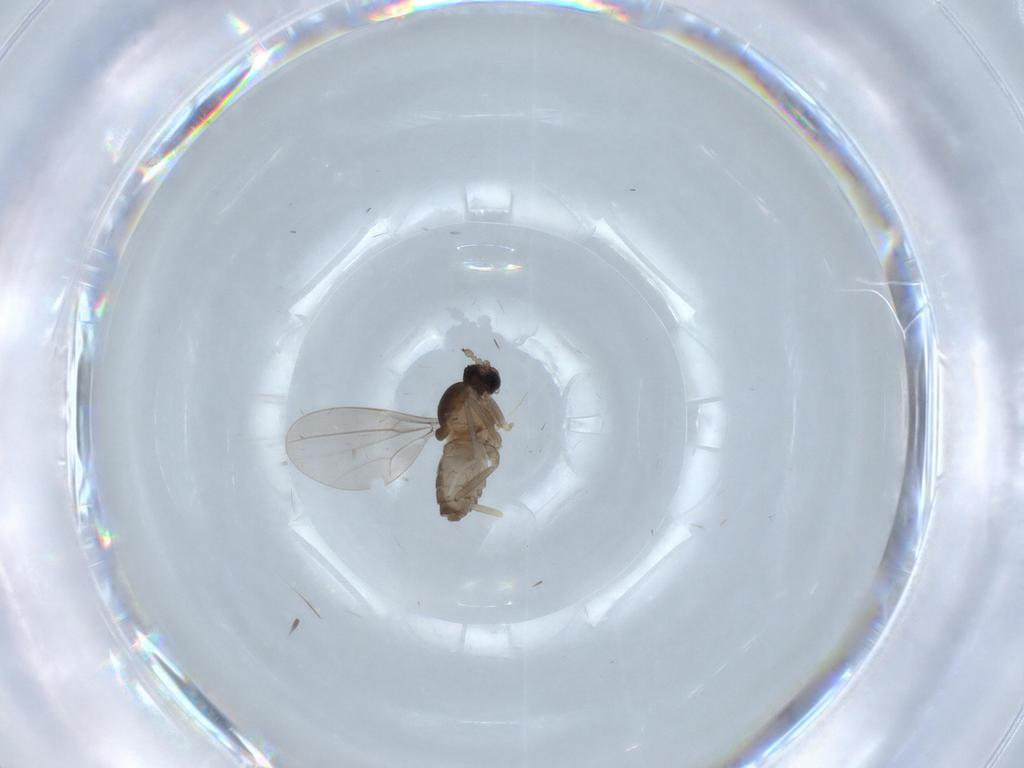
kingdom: Animalia
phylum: Arthropoda
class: Insecta
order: Diptera
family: Cecidomyiidae
